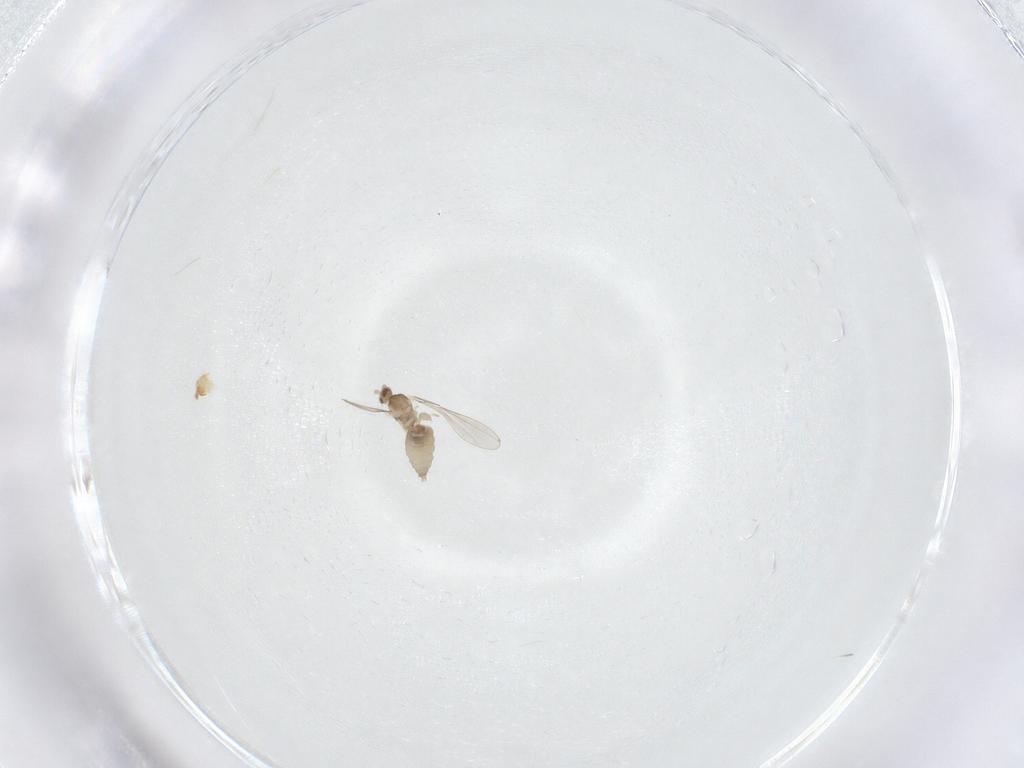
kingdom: Animalia
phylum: Arthropoda
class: Insecta
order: Diptera
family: Cecidomyiidae
